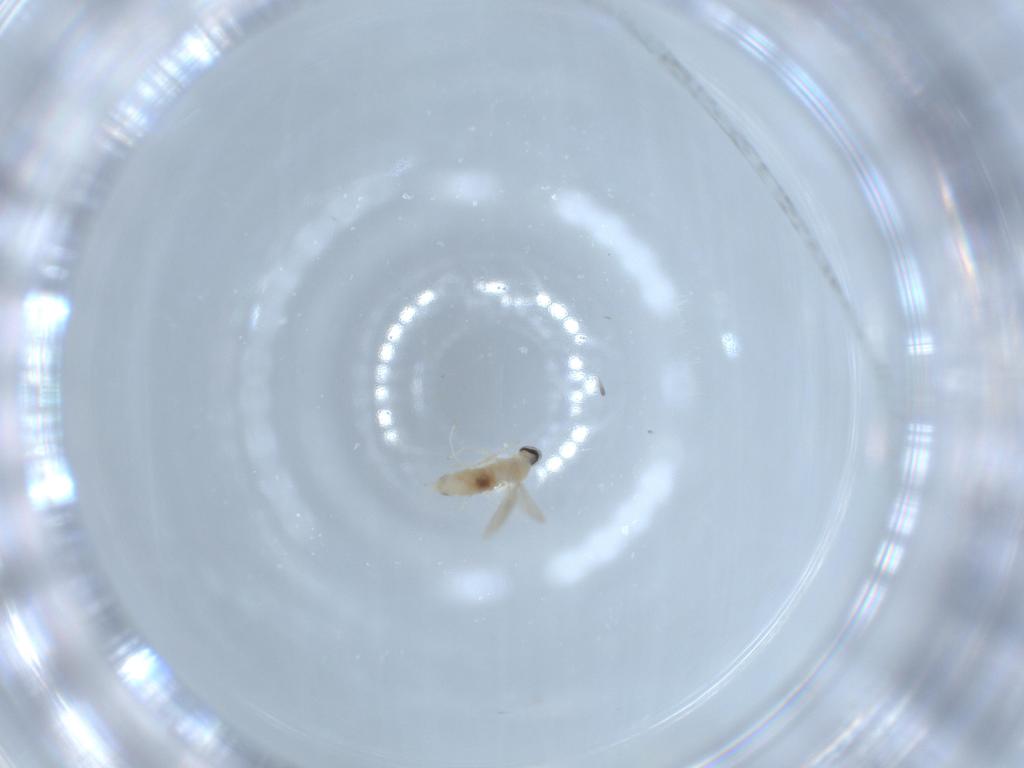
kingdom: Animalia
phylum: Arthropoda
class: Insecta
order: Diptera
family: Cecidomyiidae
